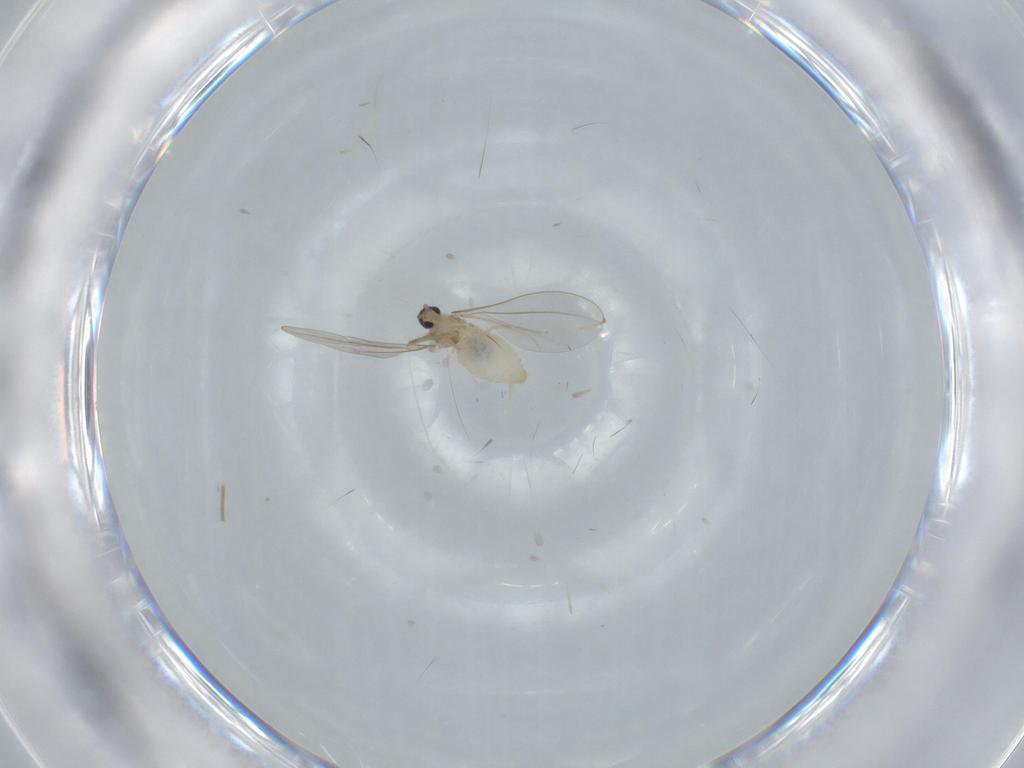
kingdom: Animalia
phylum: Arthropoda
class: Insecta
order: Diptera
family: Cecidomyiidae
